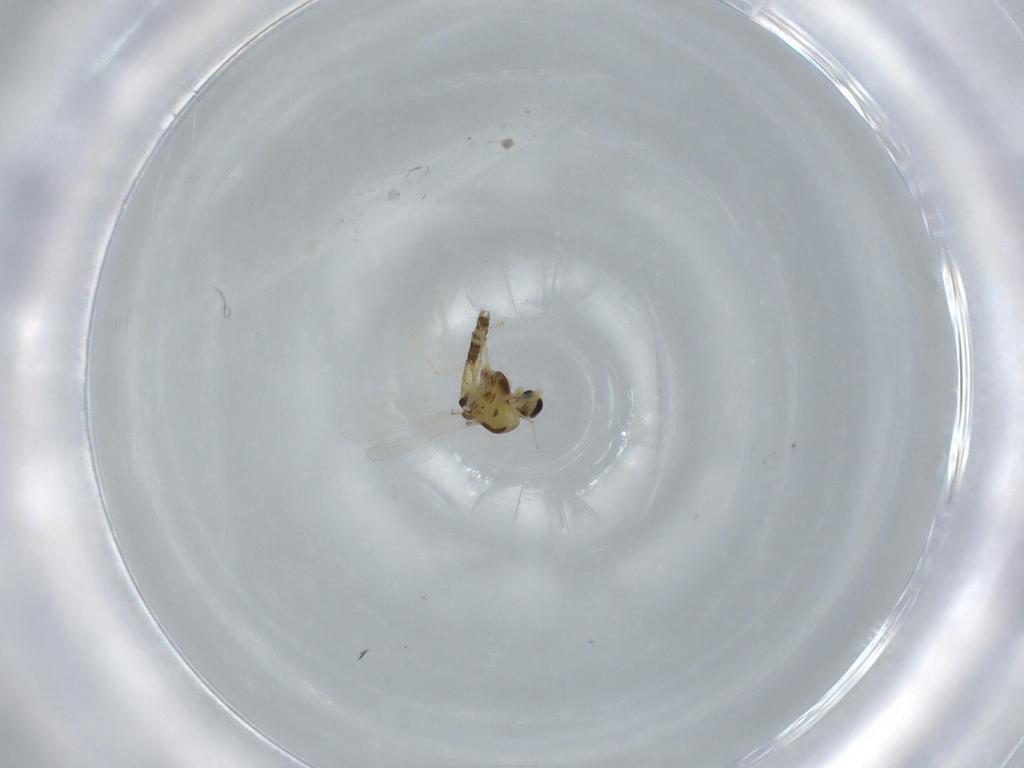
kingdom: Animalia
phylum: Arthropoda
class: Insecta
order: Diptera
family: Chironomidae
